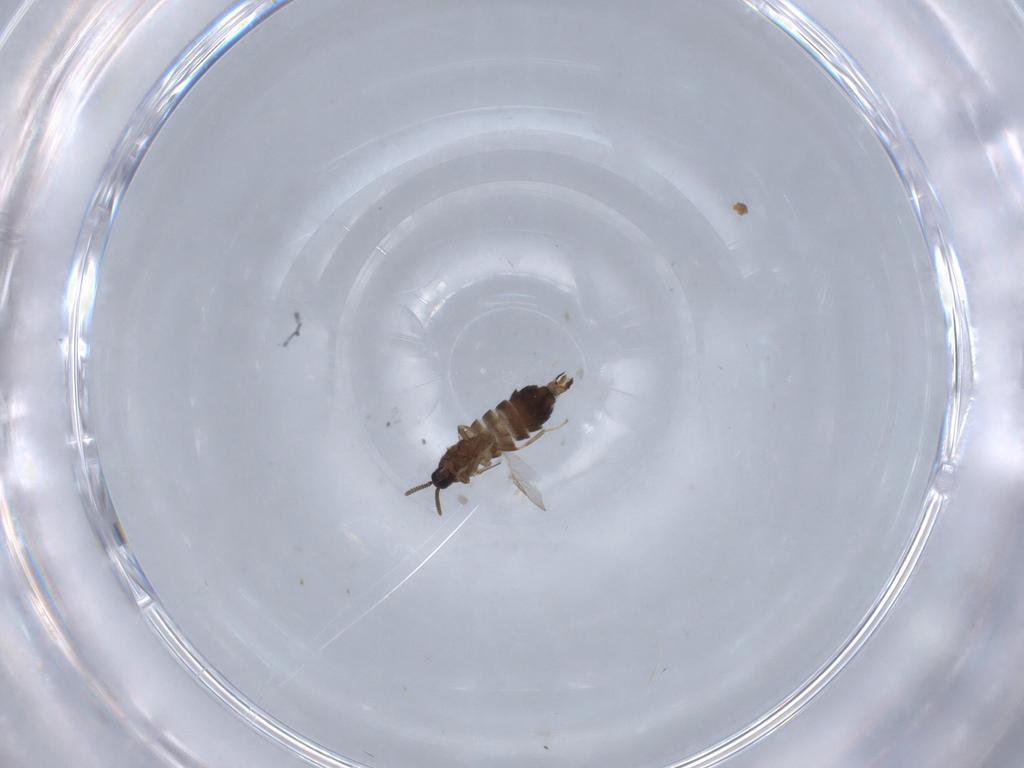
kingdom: Animalia
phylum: Arthropoda
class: Insecta
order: Diptera
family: Scatopsidae
